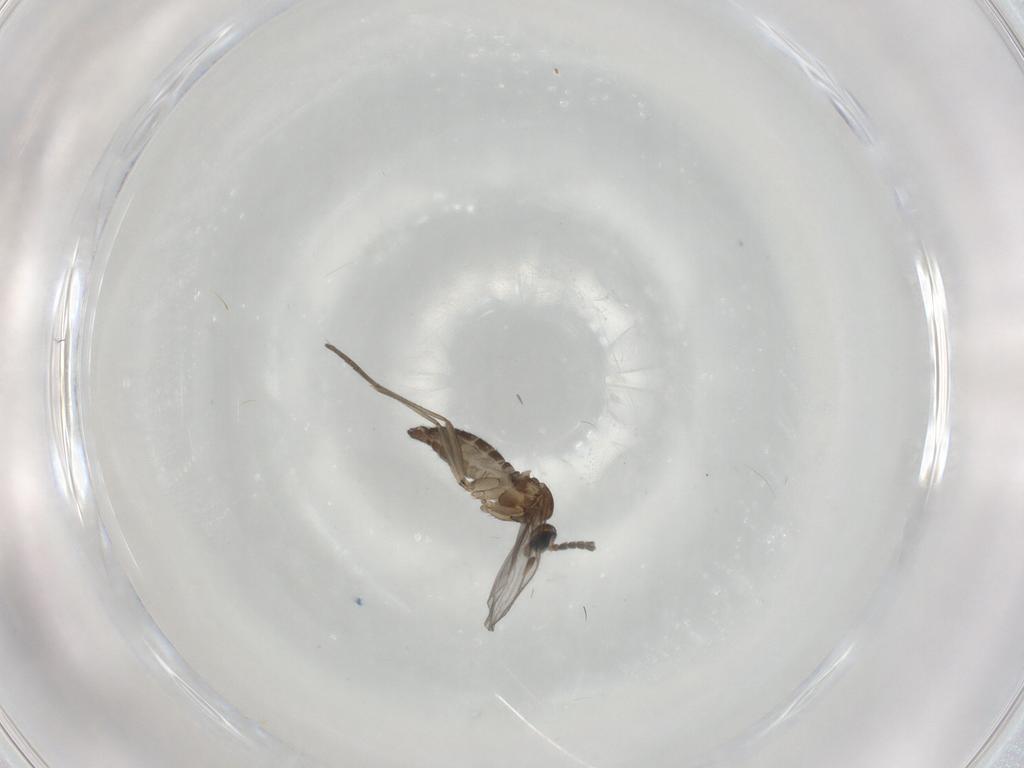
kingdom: Animalia
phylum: Arthropoda
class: Insecta
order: Diptera
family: Sciaridae
